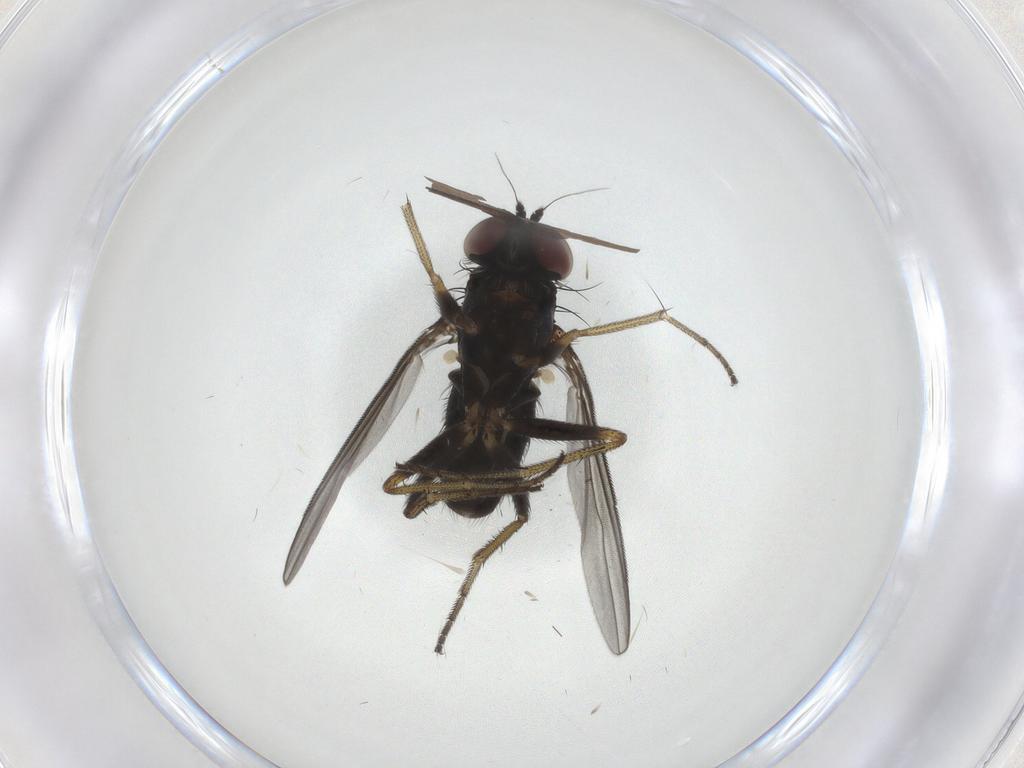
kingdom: Animalia
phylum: Arthropoda
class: Insecta
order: Diptera
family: Chironomidae
